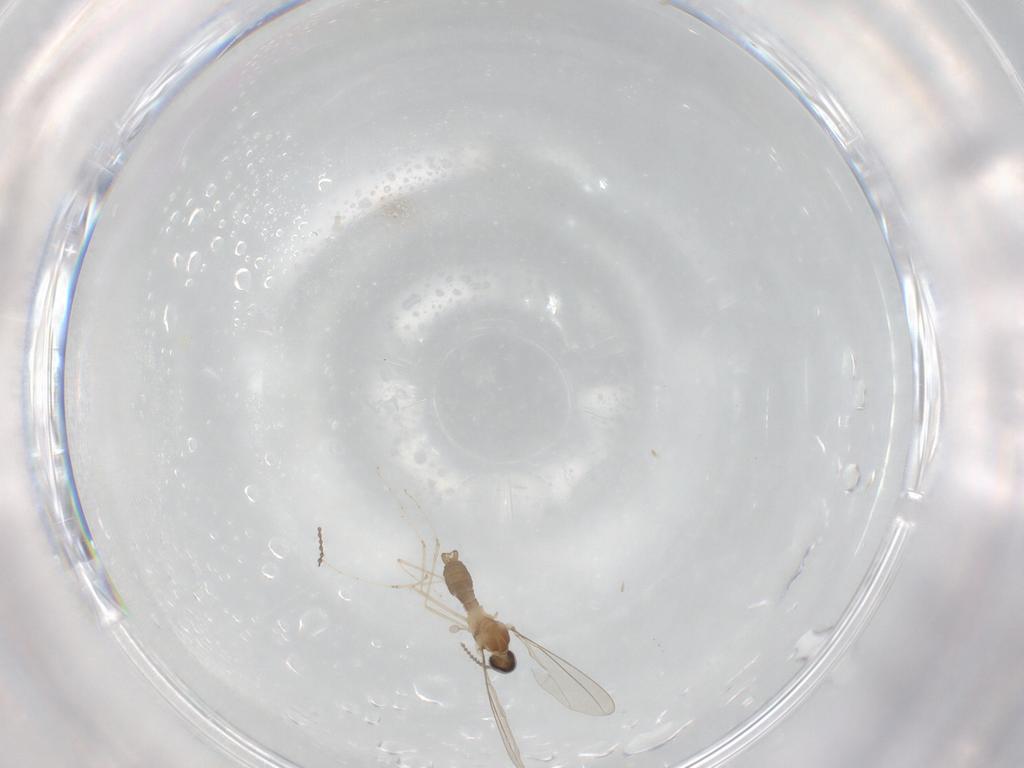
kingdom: Animalia
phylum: Arthropoda
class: Insecta
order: Diptera
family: Cecidomyiidae
